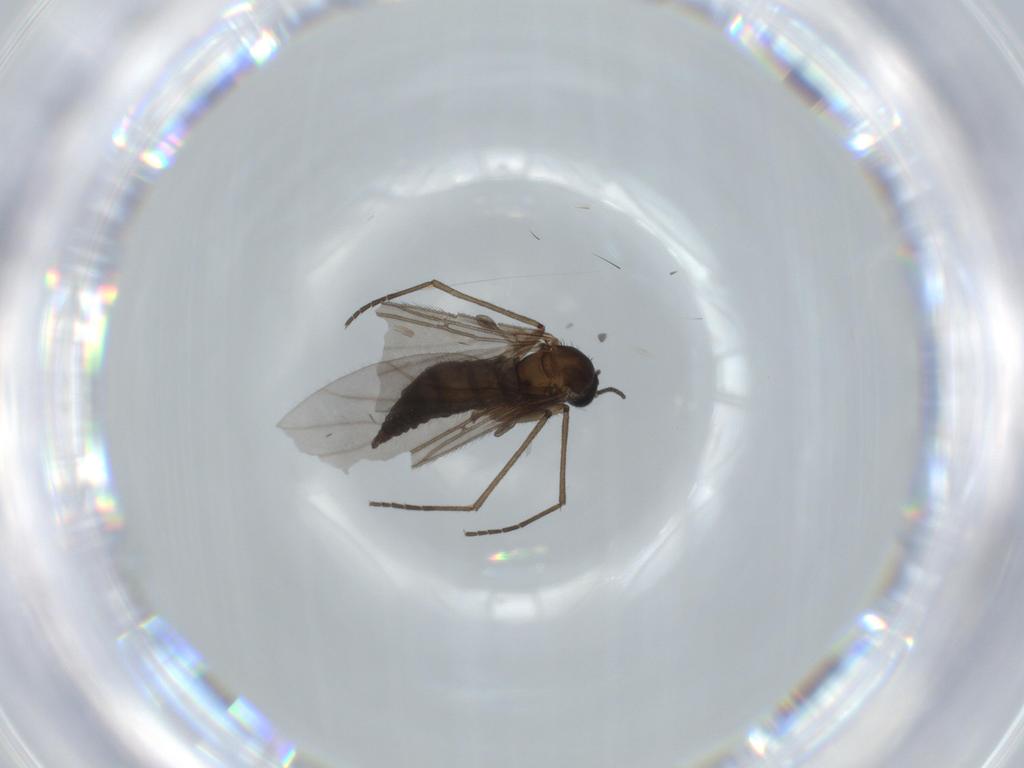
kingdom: Animalia
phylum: Arthropoda
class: Insecta
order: Diptera
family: Sciaridae
